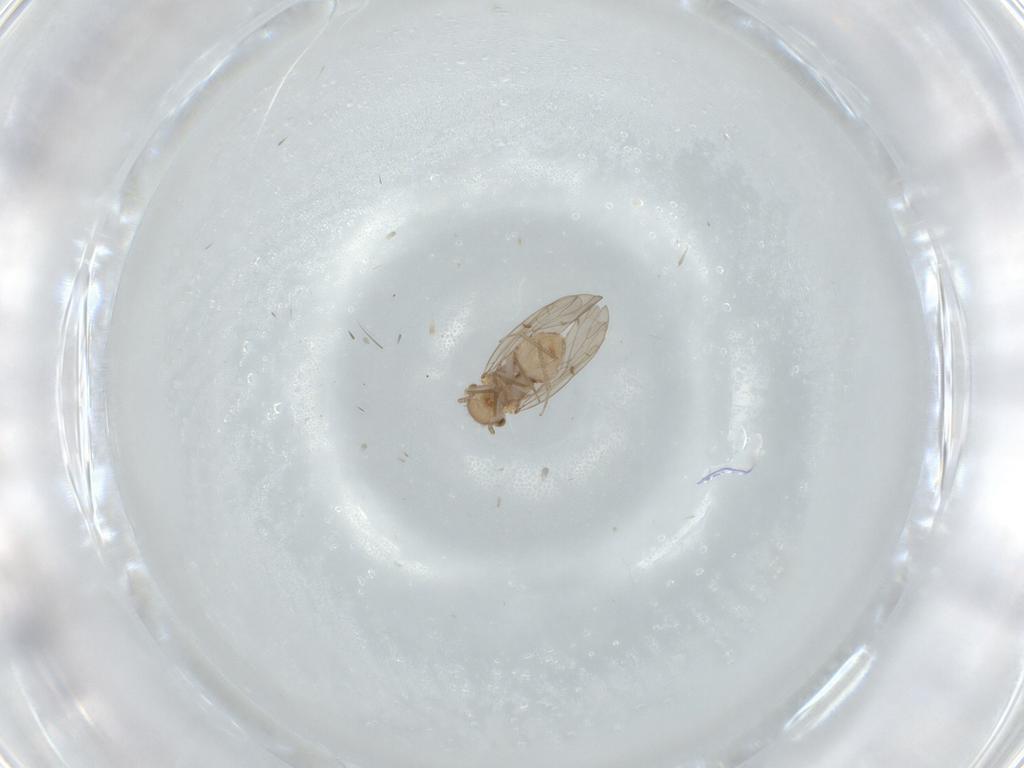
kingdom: Animalia
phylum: Arthropoda
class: Insecta
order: Psocodea
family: Ectopsocidae
